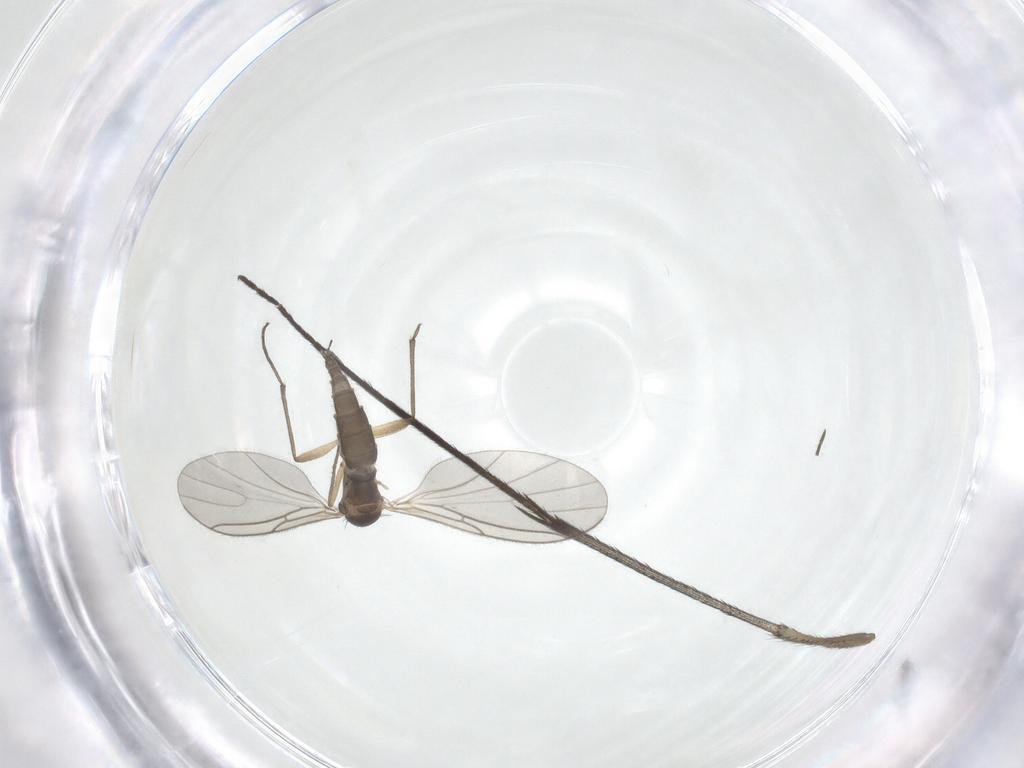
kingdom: Animalia
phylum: Arthropoda
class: Insecta
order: Diptera
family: Sciaridae
